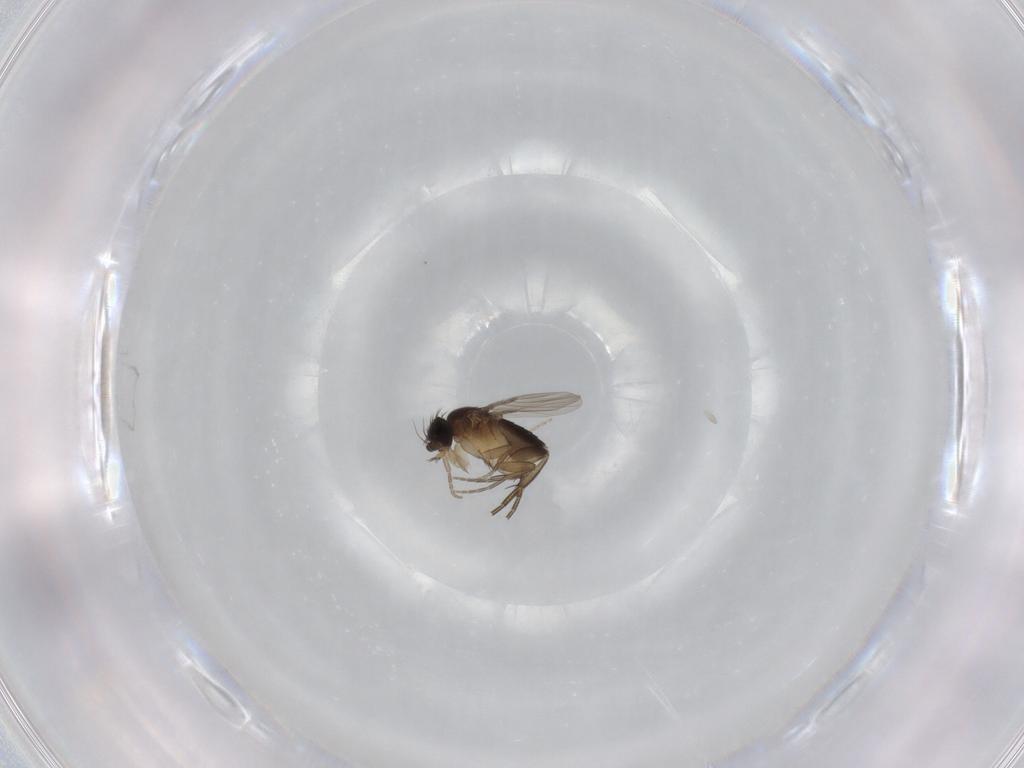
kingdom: Animalia
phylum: Arthropoda
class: Insecta
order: Diptera
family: Phoridae
